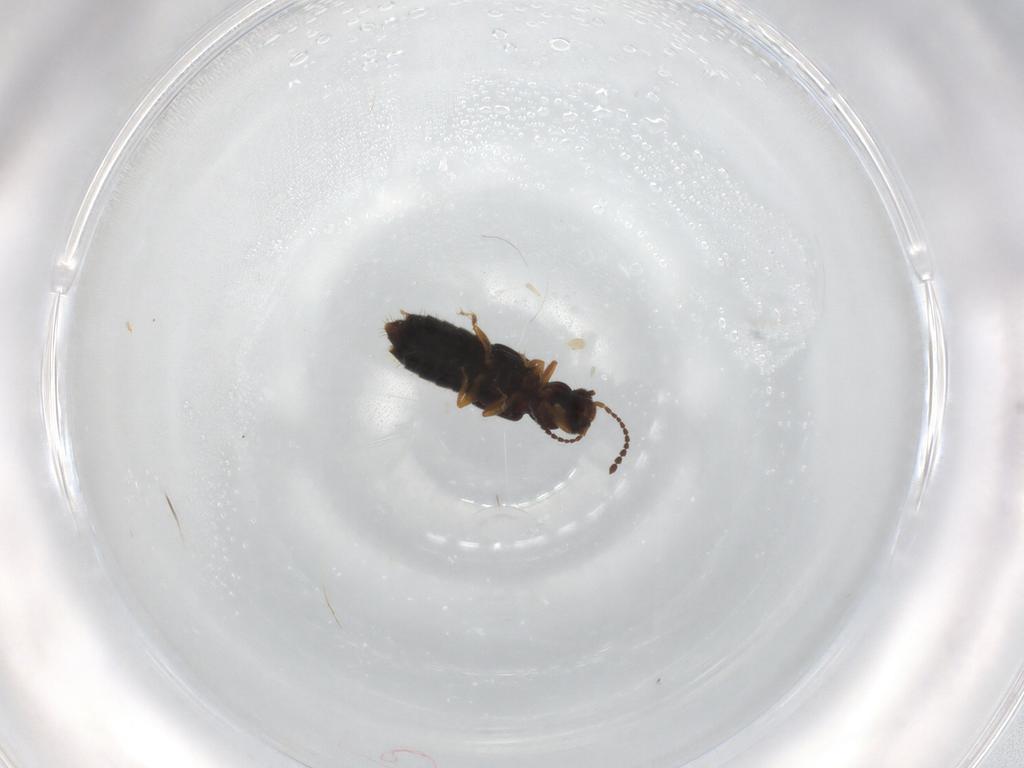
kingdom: Animalia
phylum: Arthropoda
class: Insecta
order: Coleoptera
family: Staphylinidae
